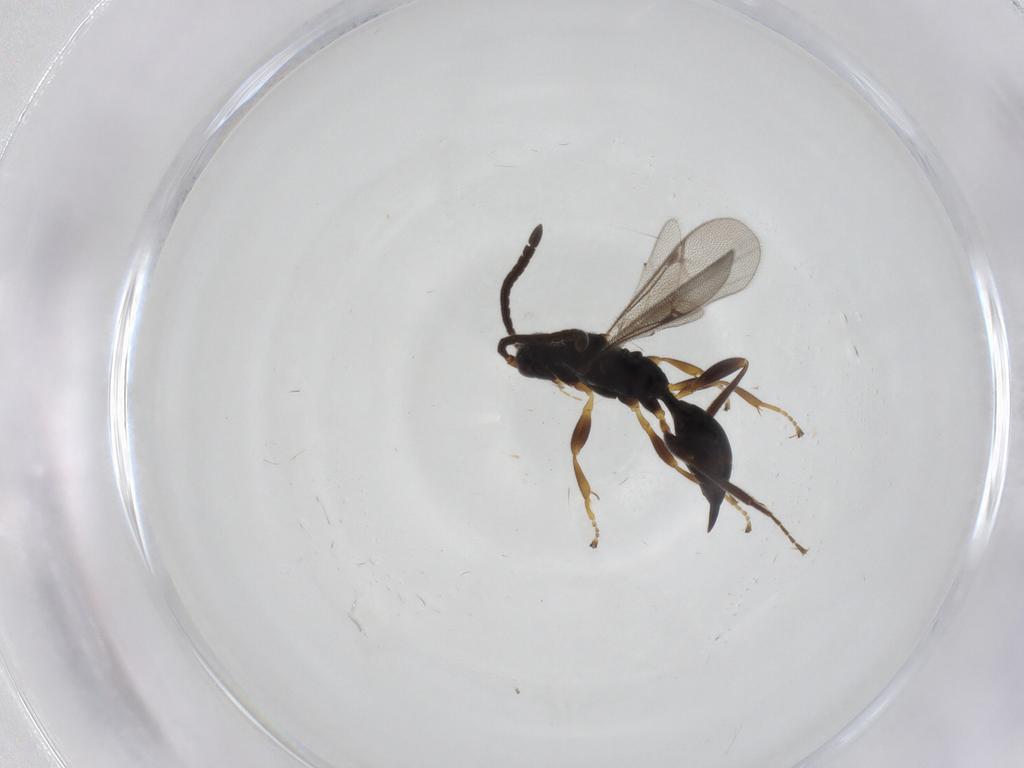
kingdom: Animalia
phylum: Arthropoda
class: Insecta
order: Hymenoptera
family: Proctotrupidae
